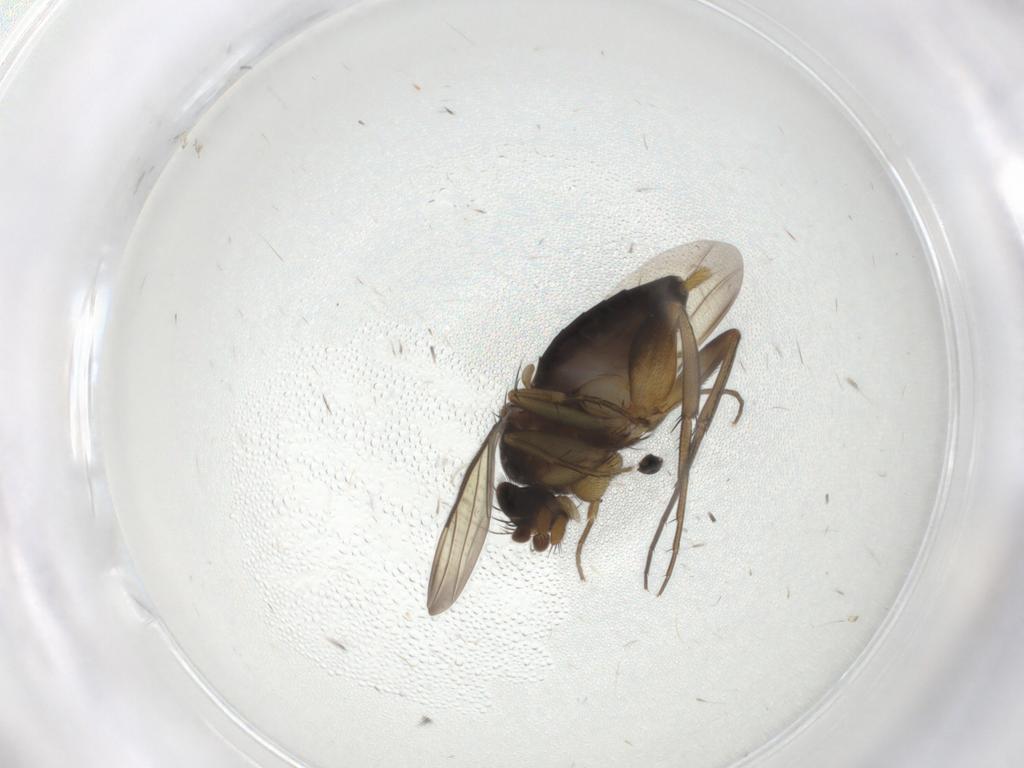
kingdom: Animalia
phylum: Arthropoda
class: Insecta
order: Diptera
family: Phoridae
